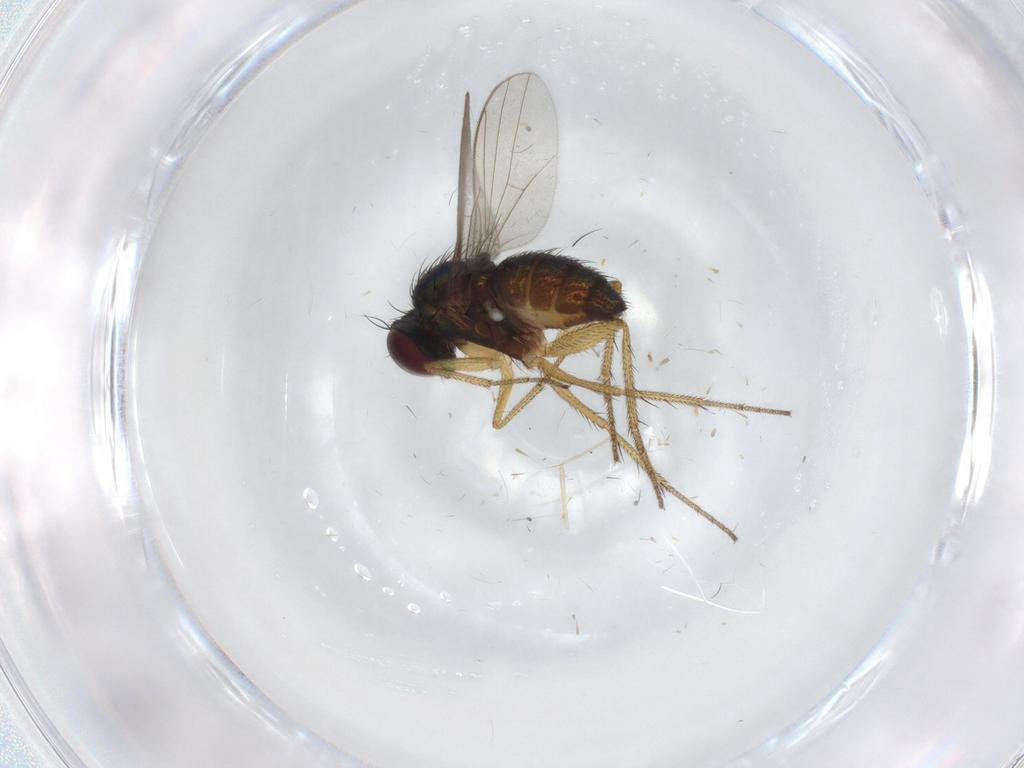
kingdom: Animalia
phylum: Arthropoda
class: Insecta
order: Diptera
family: Dolichopodidae
